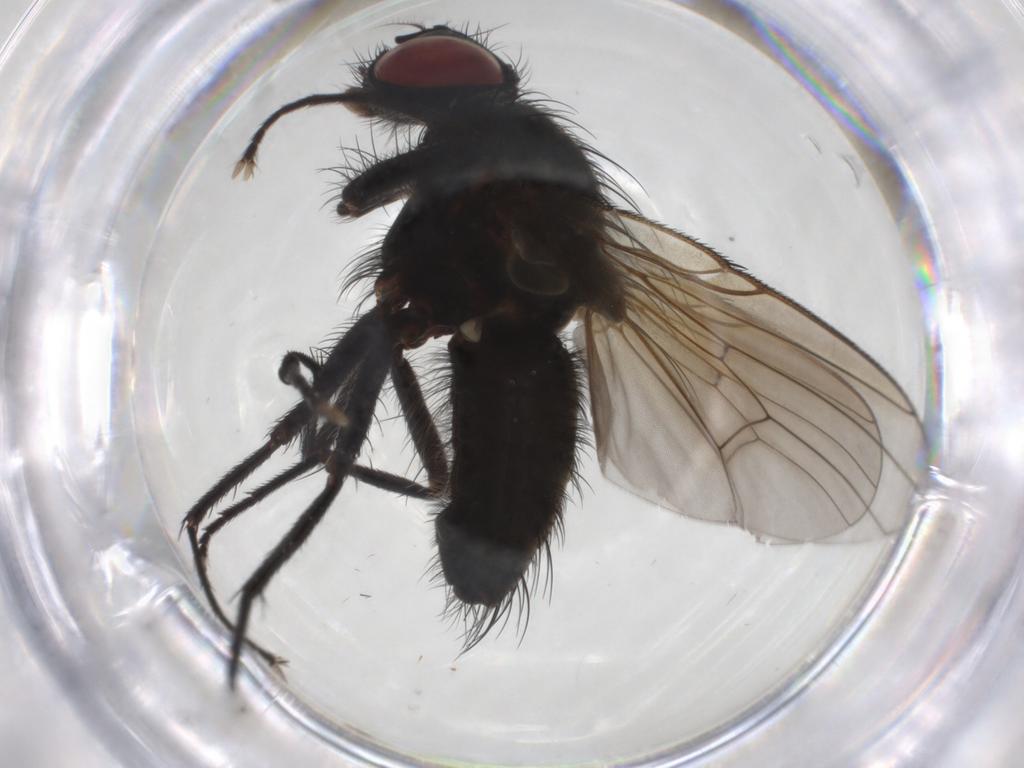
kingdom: Animalia
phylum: Arthropoda
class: Insecta
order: Diptera
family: Muscidae
